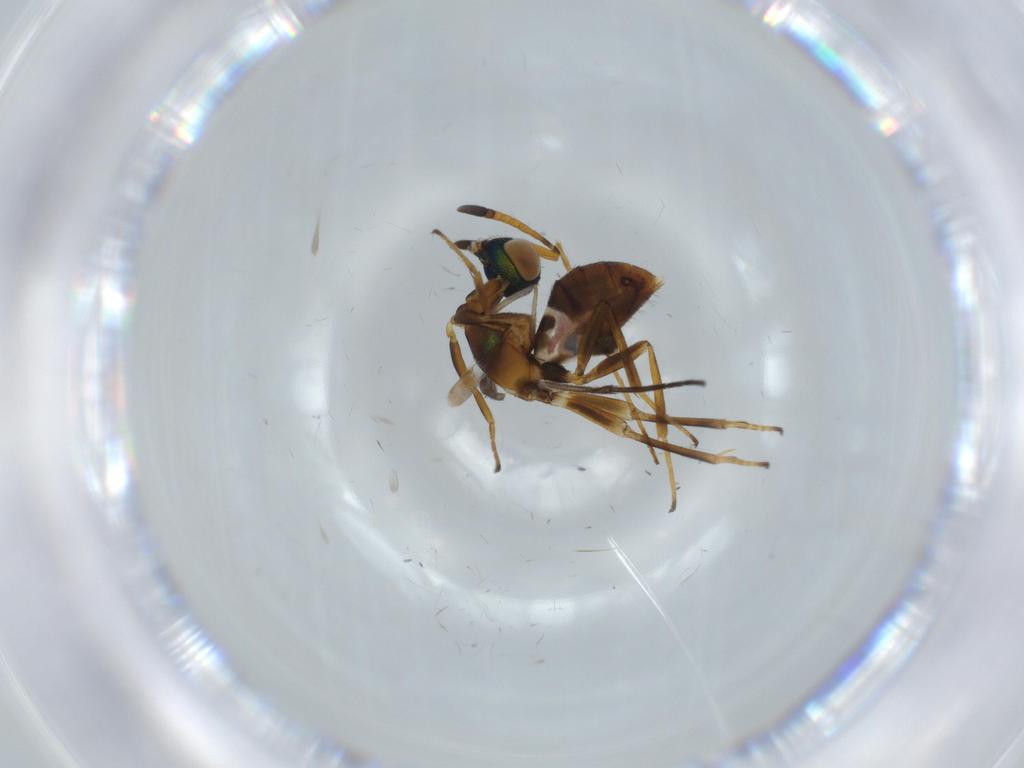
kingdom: Animalia
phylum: Arthropoda
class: Insecta
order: Hymenoptera
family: Eupelmidae
